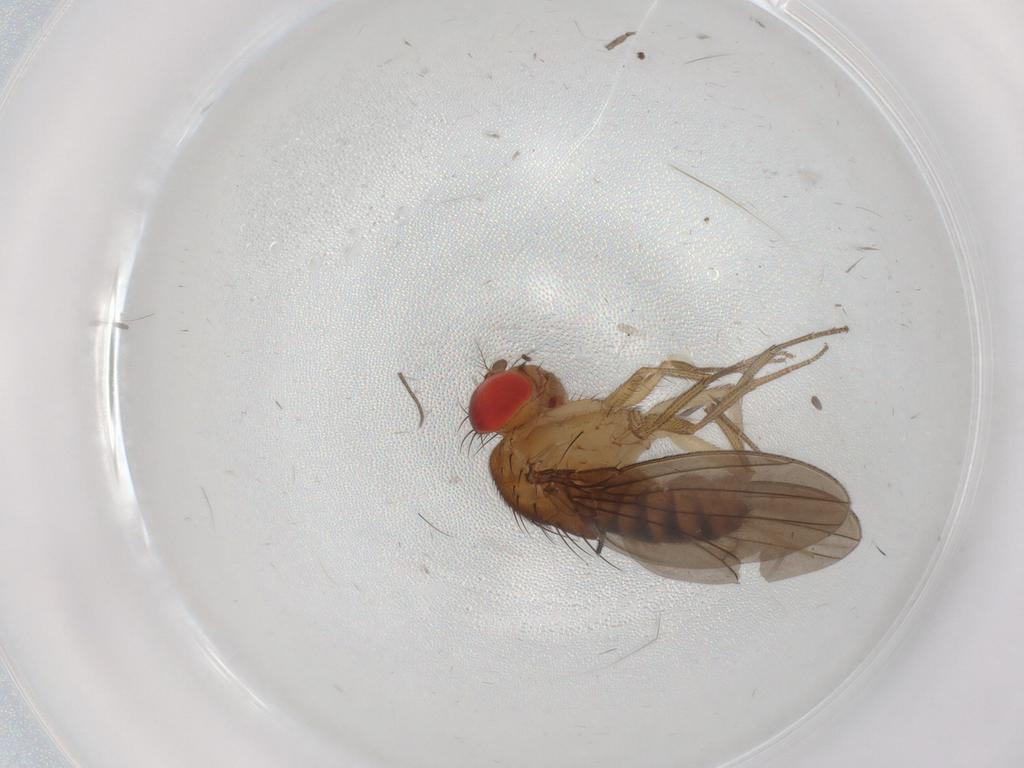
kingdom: Animalia
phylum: Arthropoda
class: Insecta
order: Diptera
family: Drosophilidae
